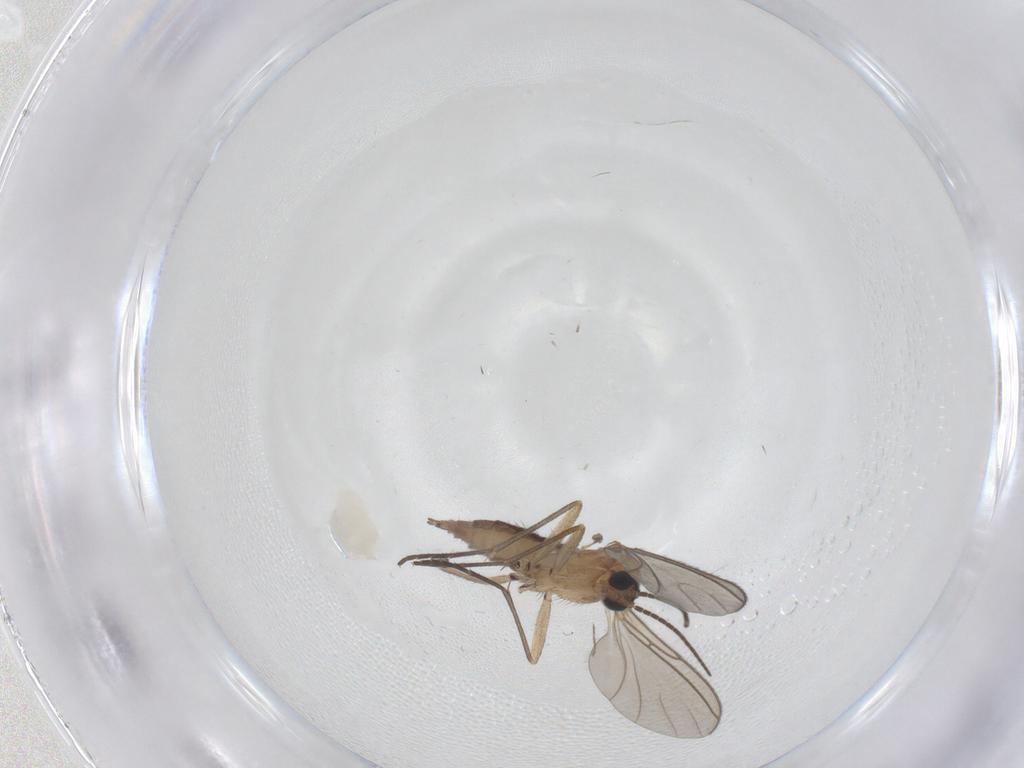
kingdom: Animalia
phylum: Arthropoda
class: Insecta
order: Diptera
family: Sciaridae
